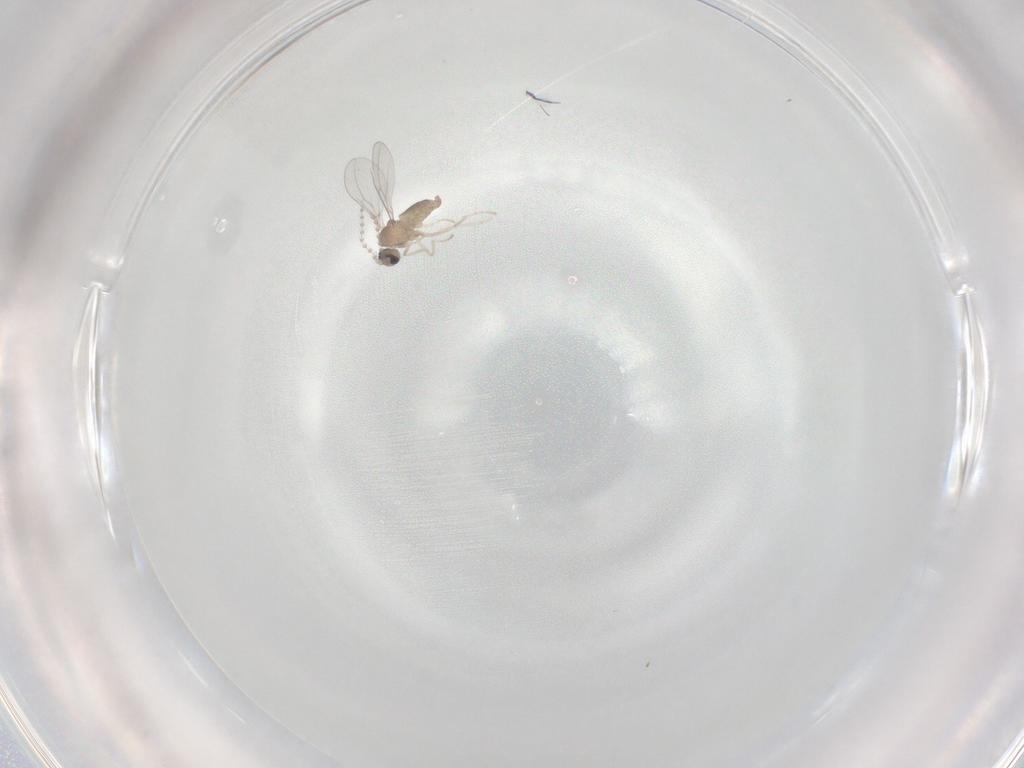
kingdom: Animalia
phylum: Arthropoda
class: Insecta
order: Diptera
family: Cecidomyiidae
